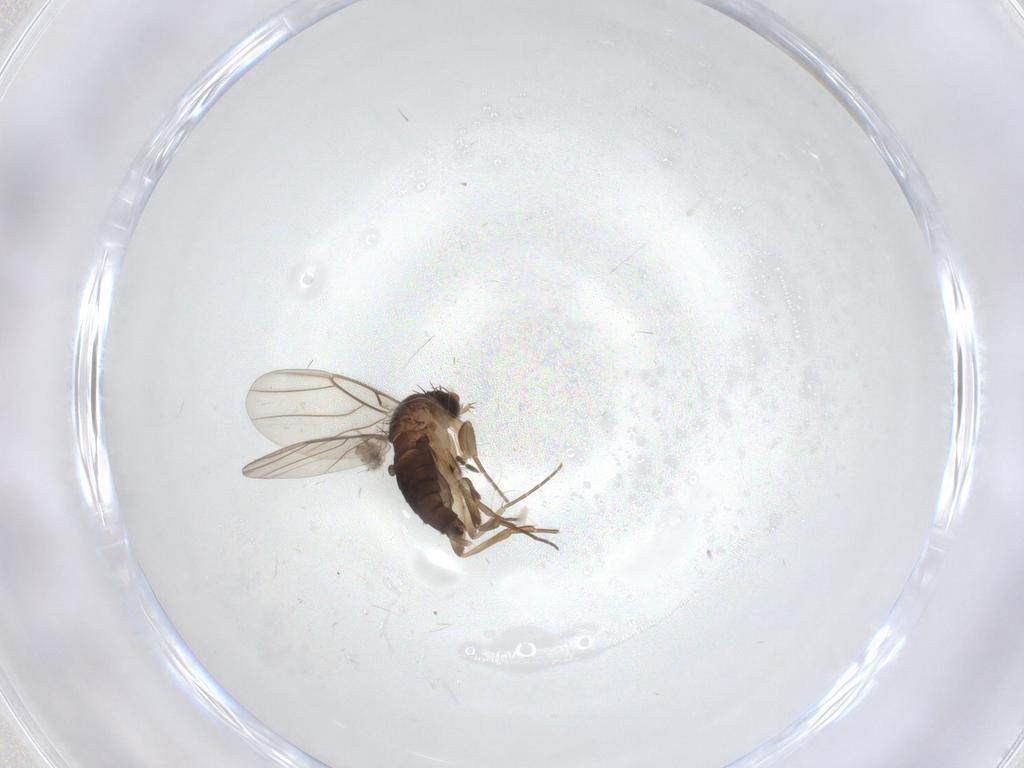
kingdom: Animalia
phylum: Arthropoda
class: Insecta
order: Diptera
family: Phoridae
